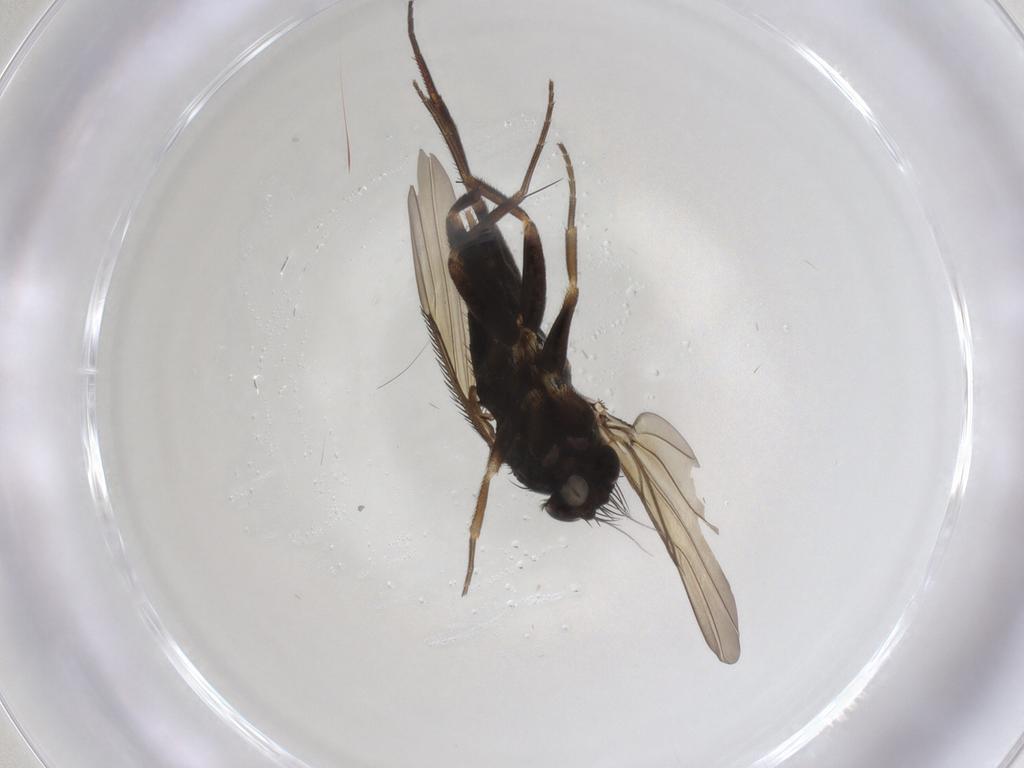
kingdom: Animalia
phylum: Arthropoda
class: Insecta
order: Diptera
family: Phoridae
